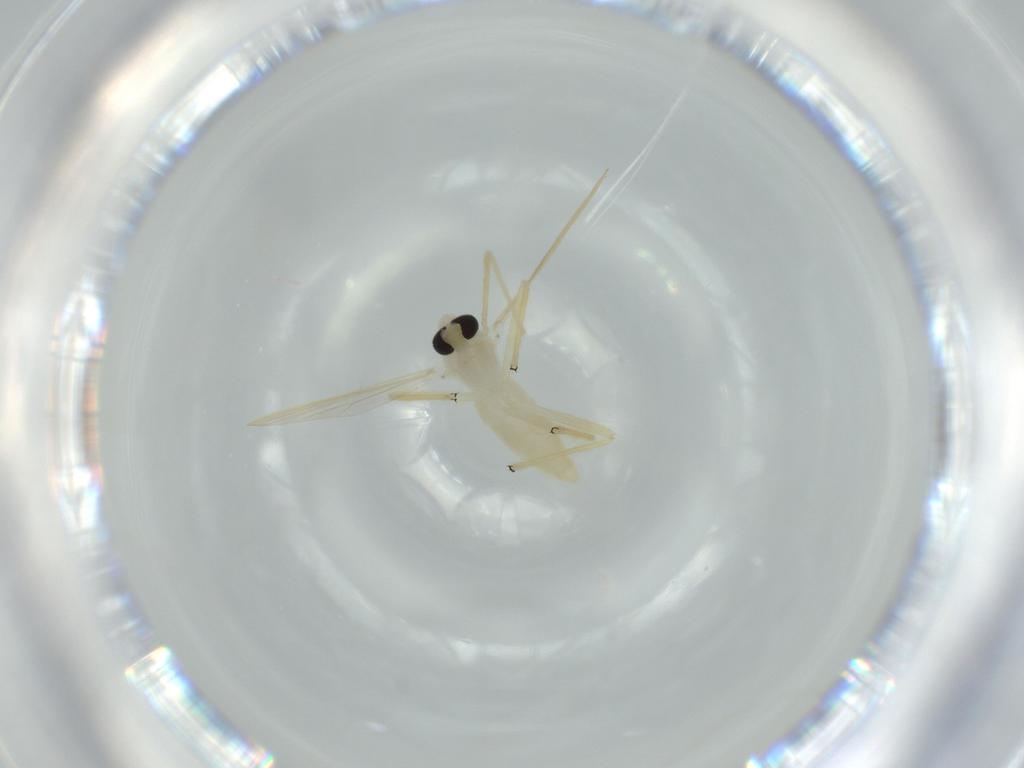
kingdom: Animalia
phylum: Arthropoda
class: Insecta
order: Diptera
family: Chironomidae
